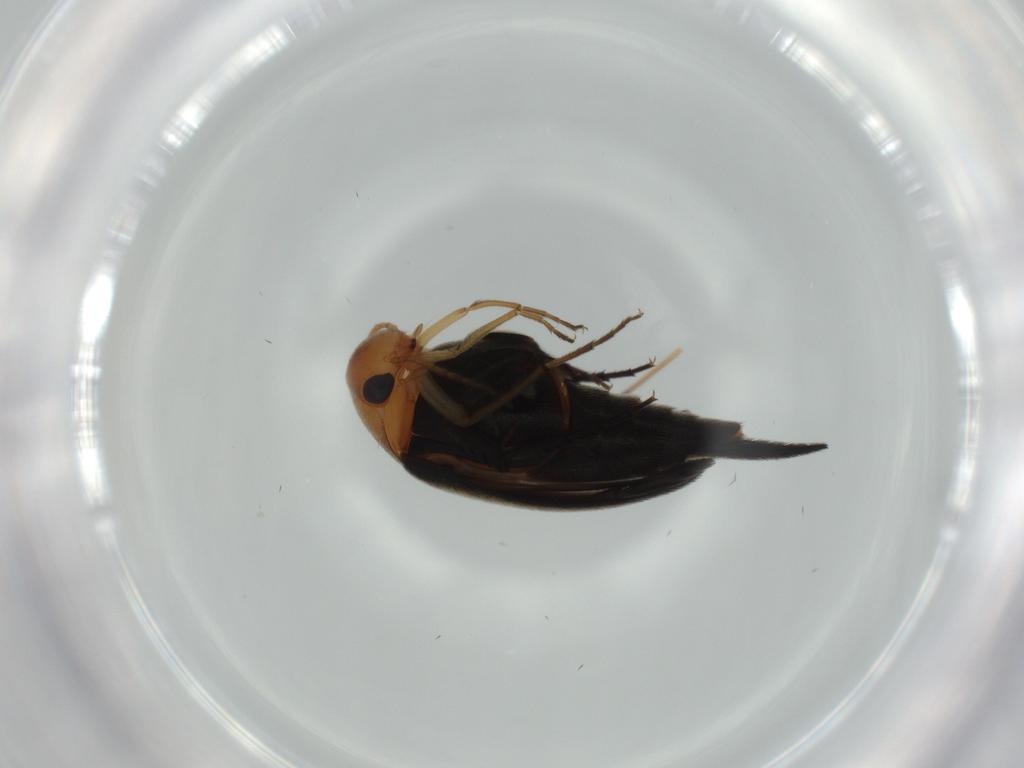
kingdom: Animalia
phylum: Arthropoda
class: Insecta
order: Coleoptera
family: Mordellidae
